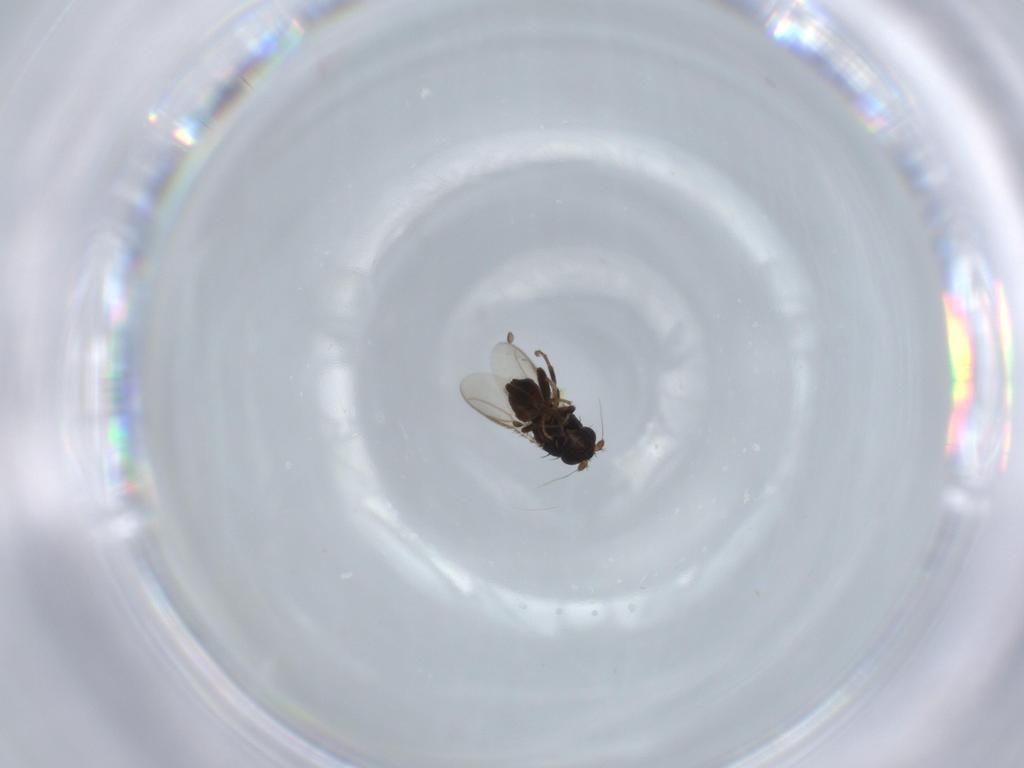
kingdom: Animalia
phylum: Arthropoda
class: Insecta
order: Diptera
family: Sphaeroceridae
